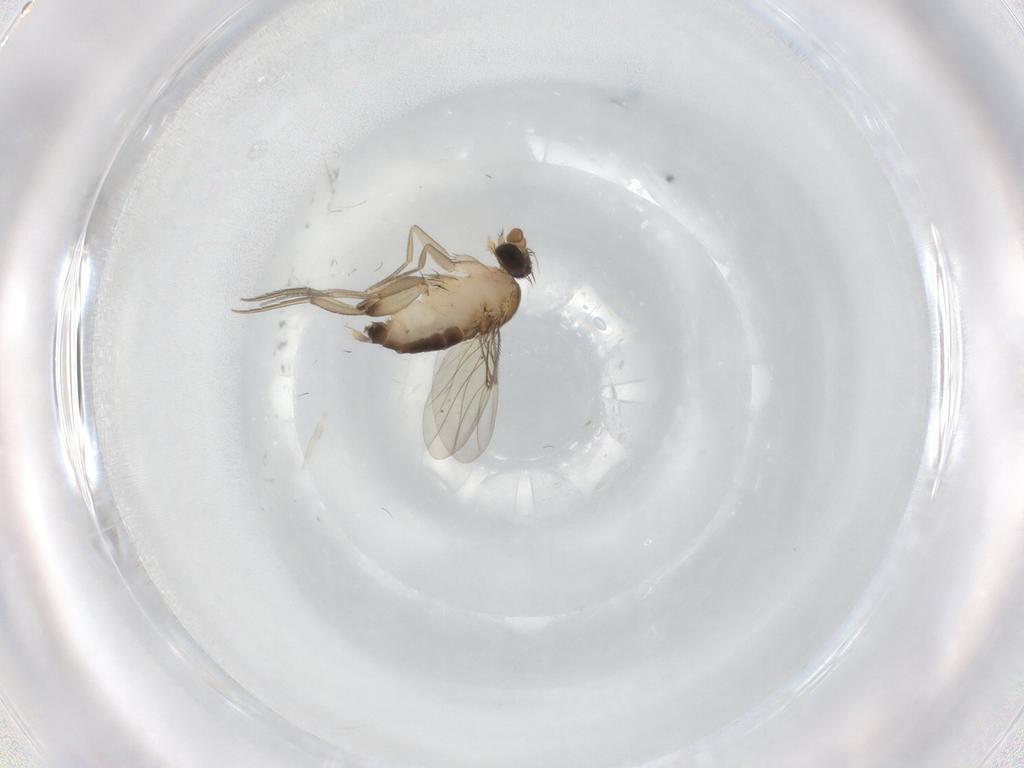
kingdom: Animalia
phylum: Arthropoda
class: Insecta
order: Diptera
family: Phoridae
